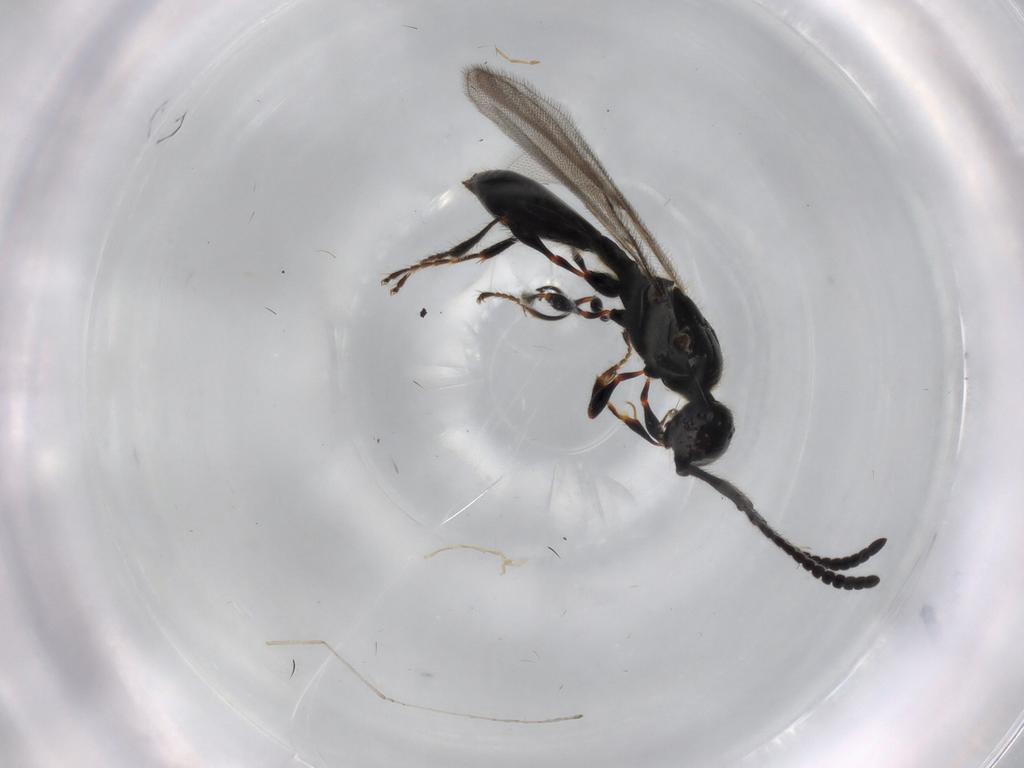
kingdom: Animalia
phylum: Arthropoda
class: Insecta
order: Hymenoptera
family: Diapriidae
